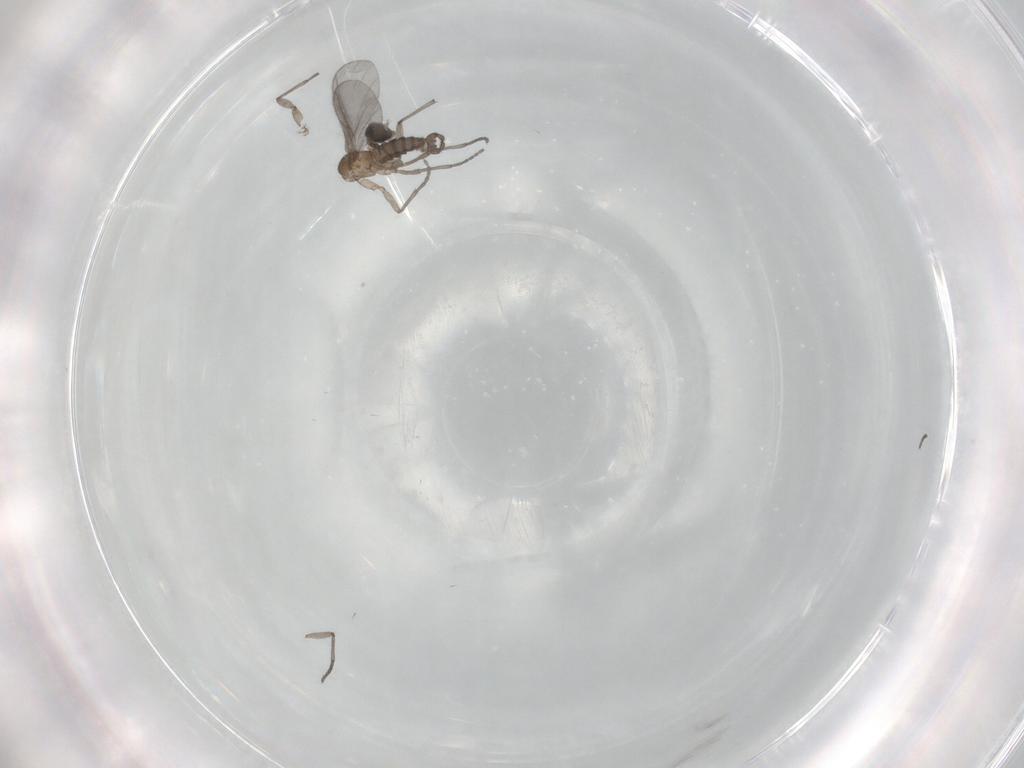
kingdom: Animalia
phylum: Arthropoda
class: Insecta
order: Diptera
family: Sciaridae
